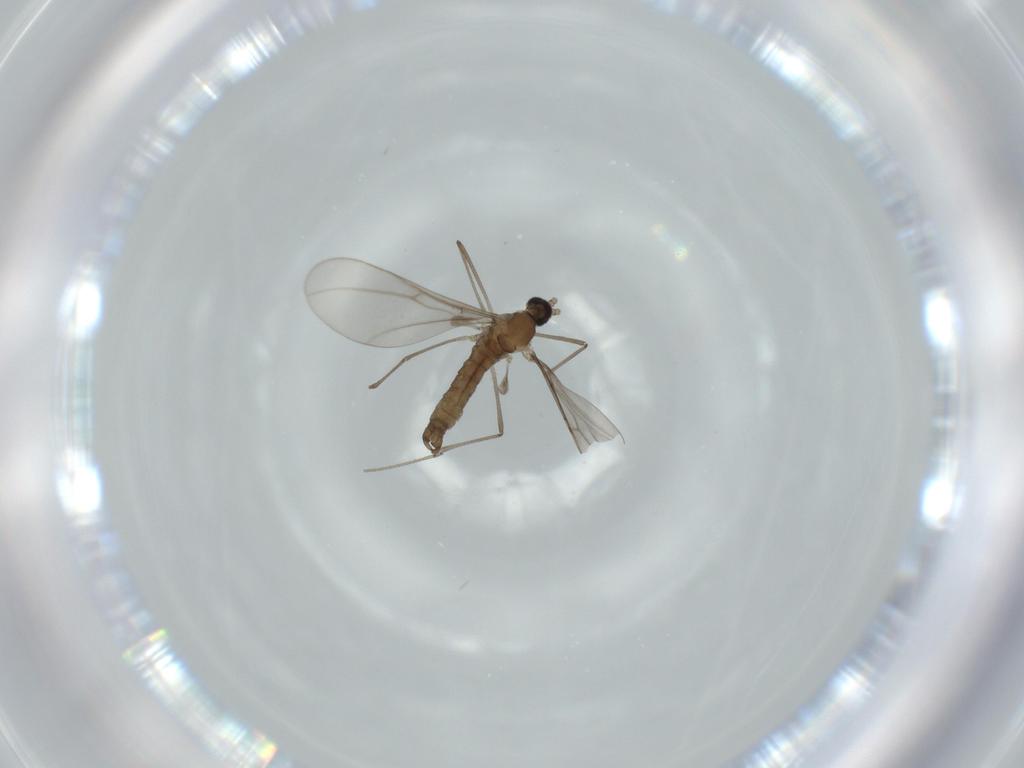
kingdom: Animalia
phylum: Arthropoda
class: Insecta
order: Diptera
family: Cecidomyiidae
